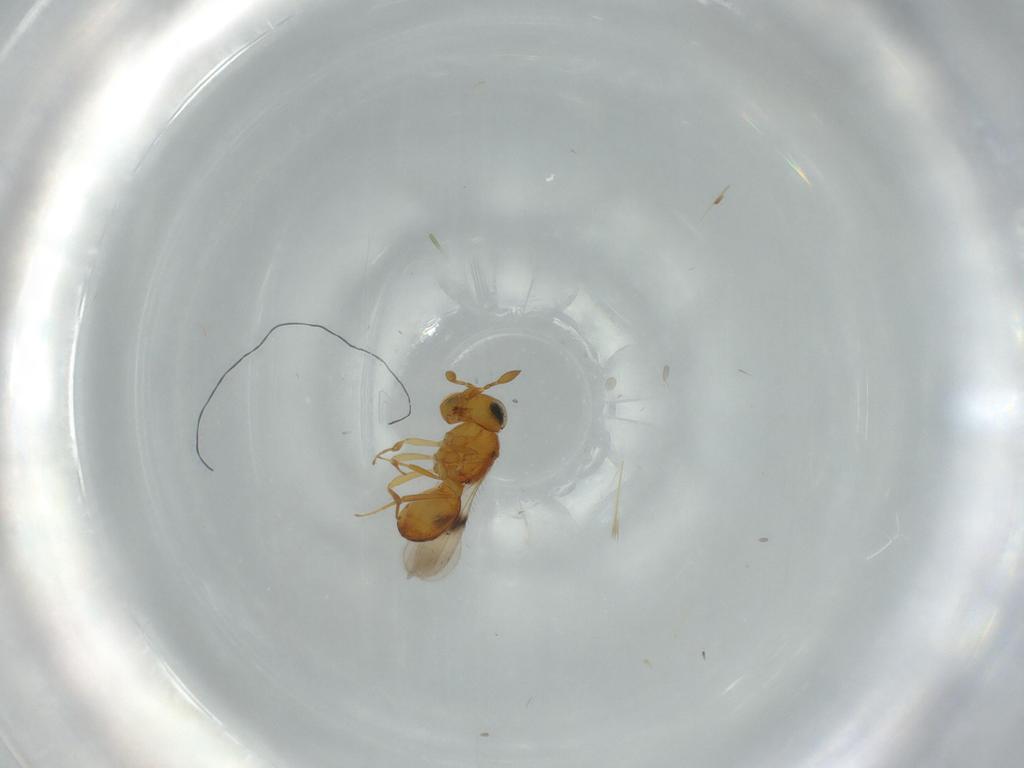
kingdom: Animalia
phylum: Arthropoda
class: Insecta
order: Hymenoptera
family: Scelionidae
